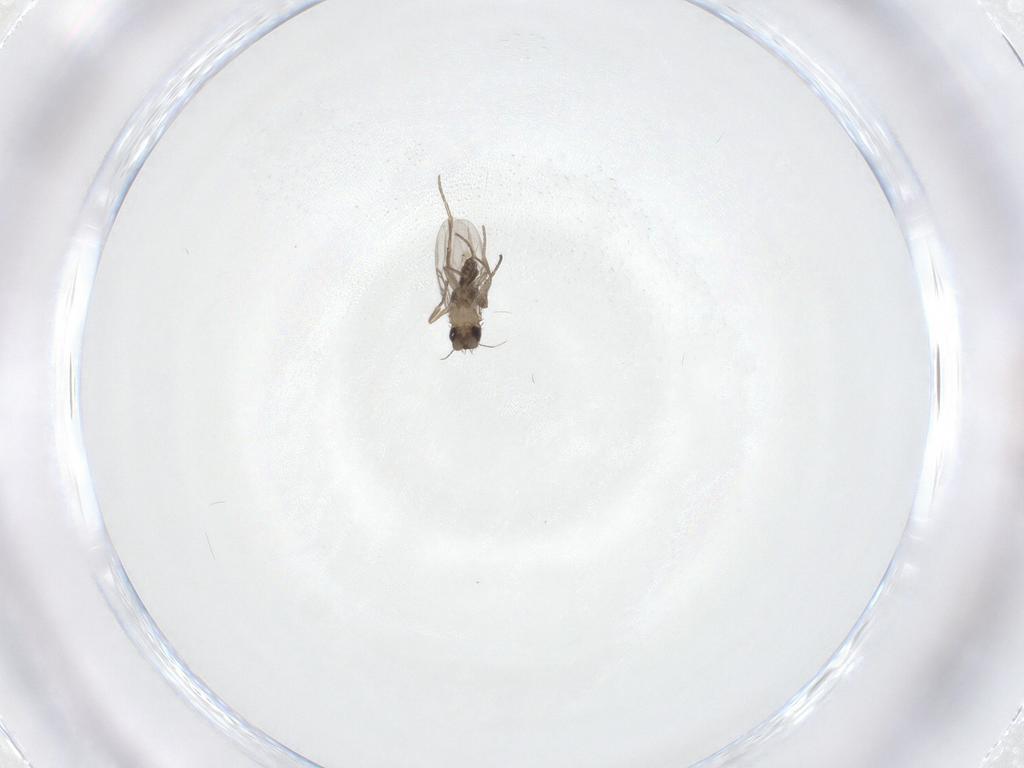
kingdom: Animalia
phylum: Arthropoda
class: Insecta
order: Diptera
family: Phoridae
